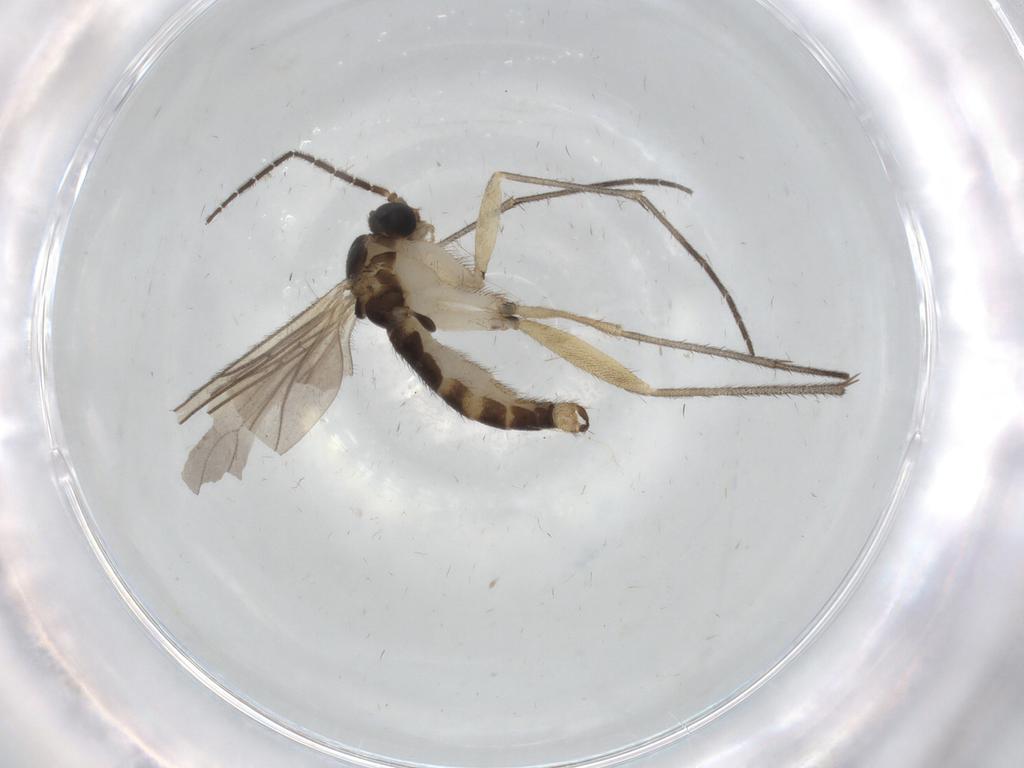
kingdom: Animalia
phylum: Arthropoda
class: Insecta
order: Diptera
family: Sciaridae
